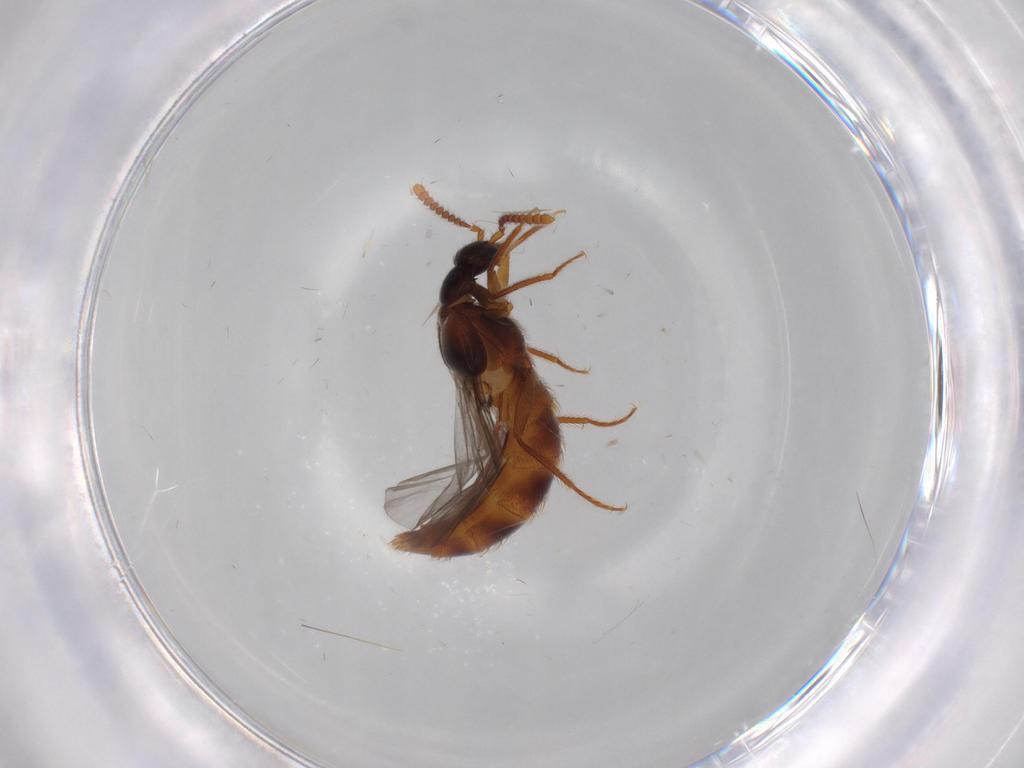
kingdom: Animalia
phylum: Arthropoda
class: Insecta
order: Coleoptera
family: Staphylinidae
